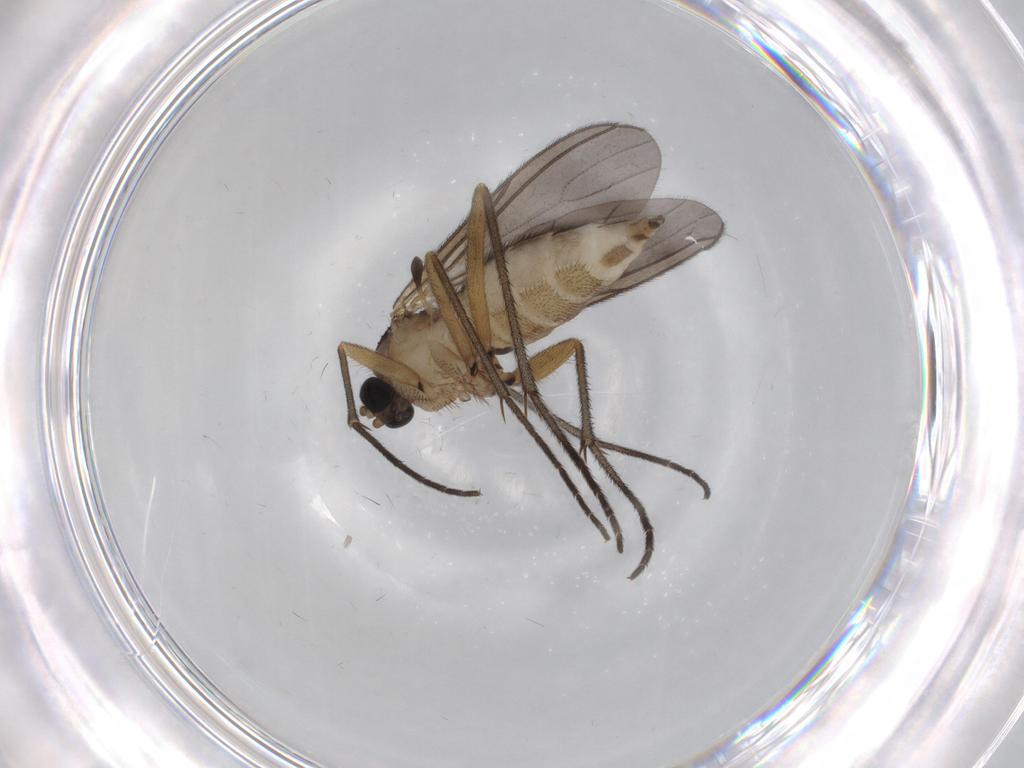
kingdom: Animalia
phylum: Arthropoda
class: Insecta
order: Diptera
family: Sciaridae
